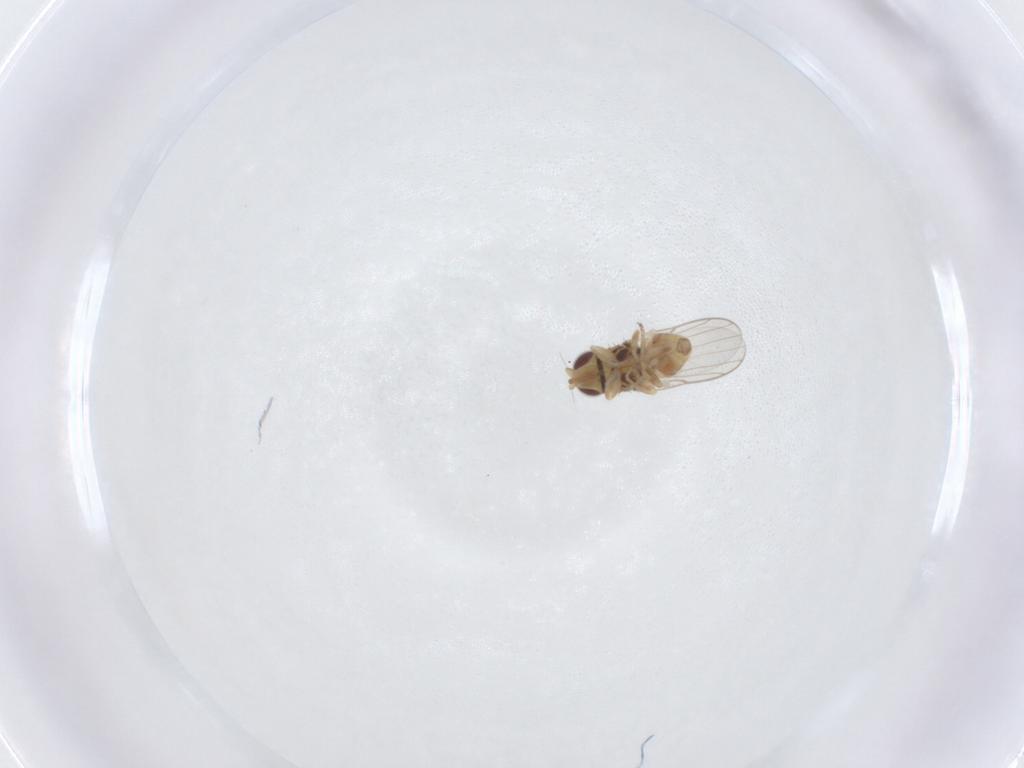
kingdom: Animalia
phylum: Arthropoda
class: Insecta
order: Diptera
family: Chloropidae
